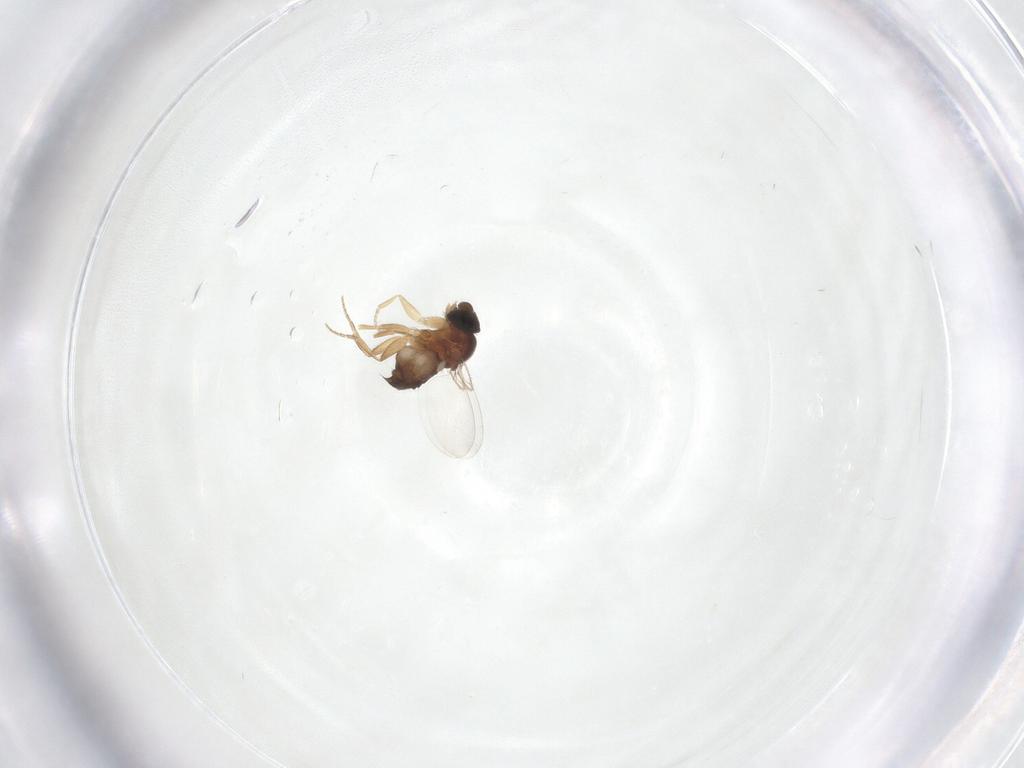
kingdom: Animalia
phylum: Arthropoda
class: Insecta
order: Diptera
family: Phoridae
